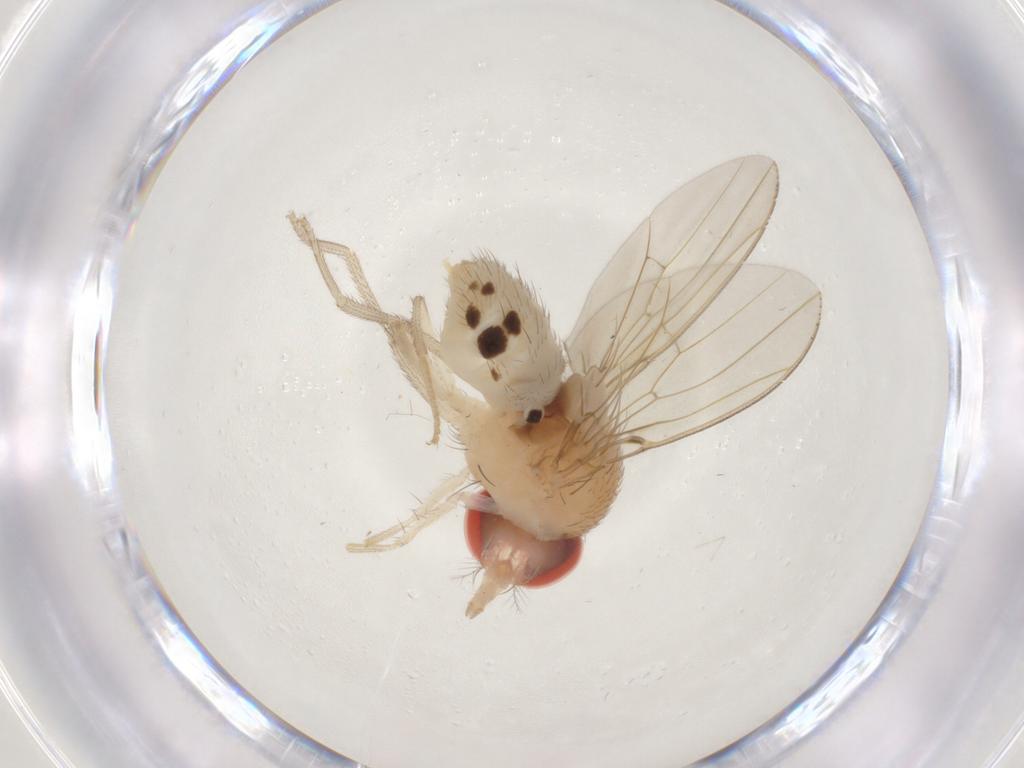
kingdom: Animalia
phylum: Arthropoda
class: Insecta
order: Diptera
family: Drosophilidae
